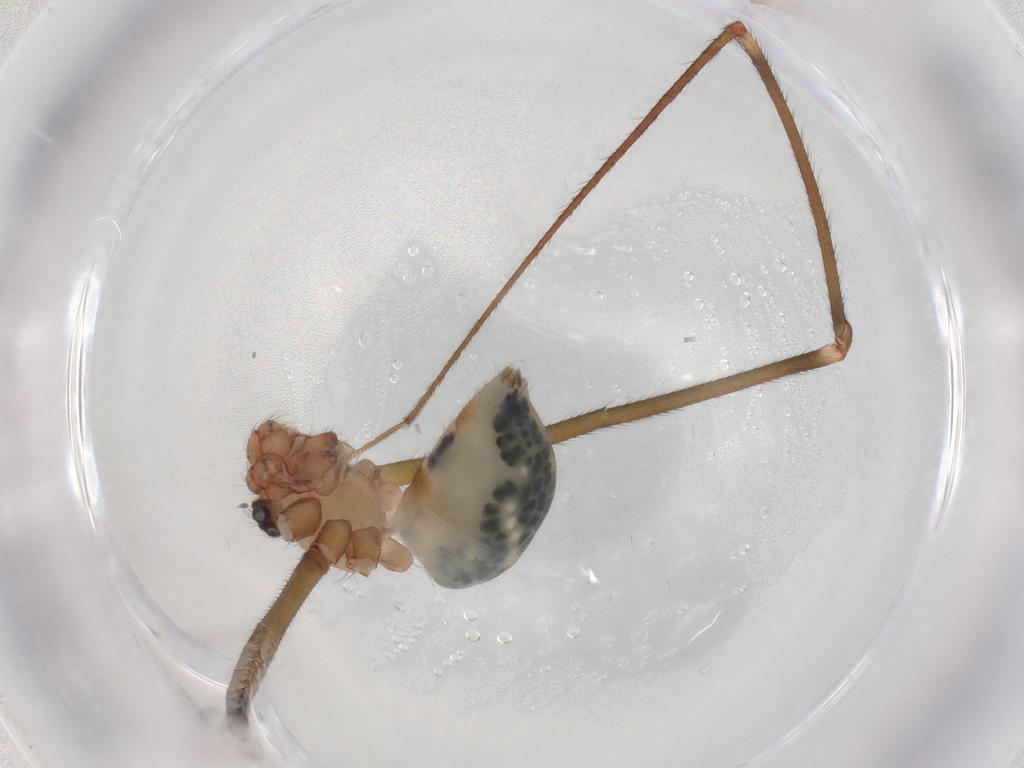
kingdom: Animalia
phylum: Arthropoda
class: Arachnida
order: Araneae
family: Pholcidae
